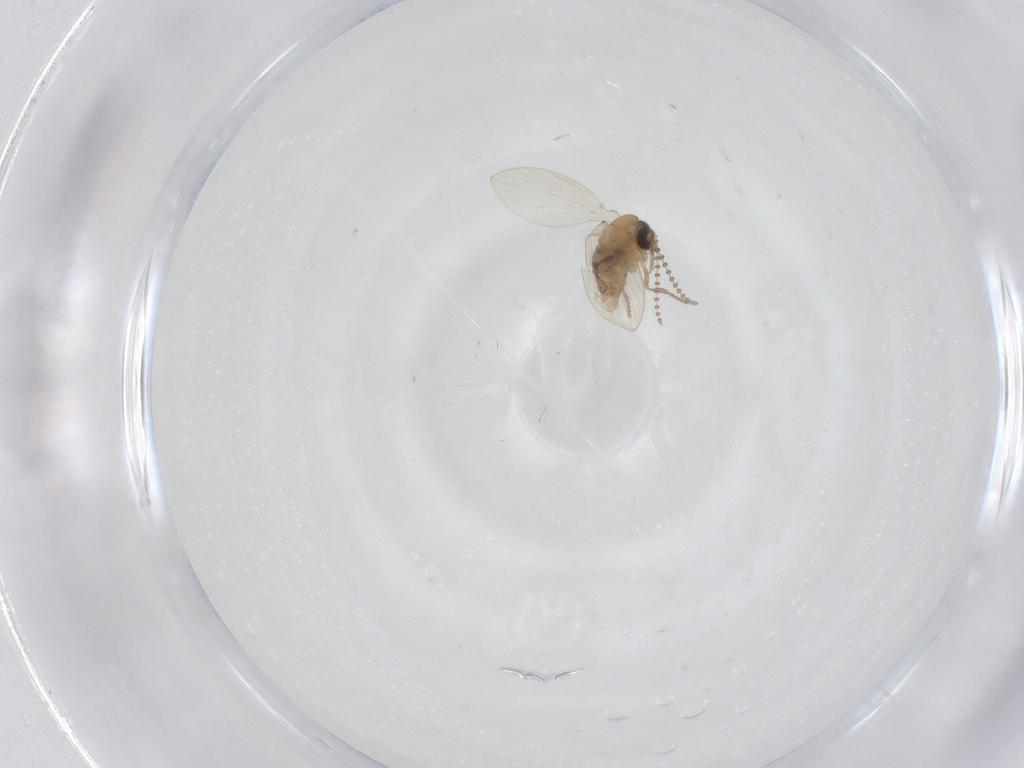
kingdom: Animalia
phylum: Arthropoda
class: Insecta
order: Diptera
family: Psychodidae
